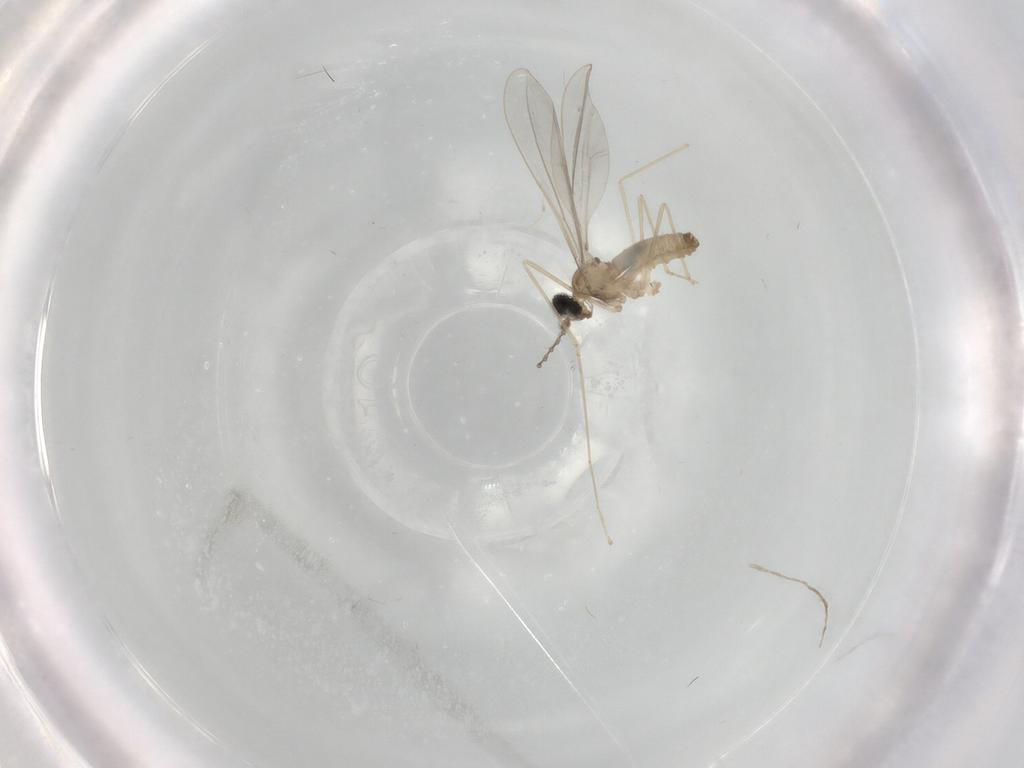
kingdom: Animalia
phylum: Arthropoda
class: Insecta
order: Diptera
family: Cecidomyiidae
